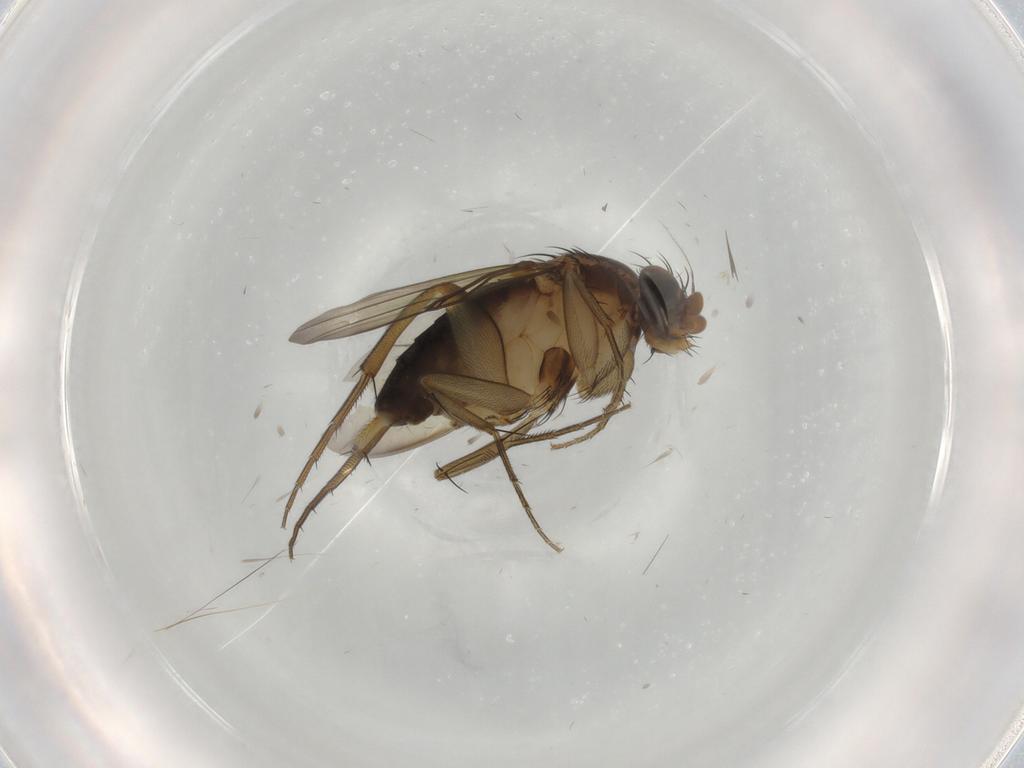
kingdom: Animalia
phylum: Arthropoda
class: Insecta
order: Diptera
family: Phoridae
